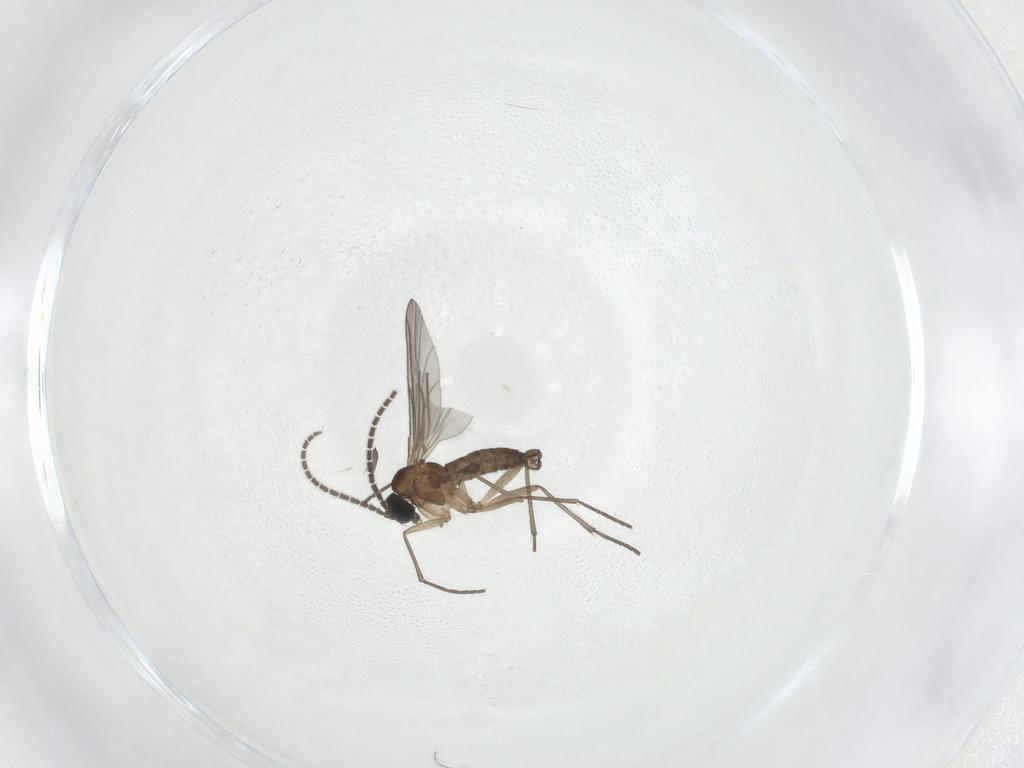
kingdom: Animalia
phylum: Arthropoda
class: Insecta
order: Diptera
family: Sciaridae
